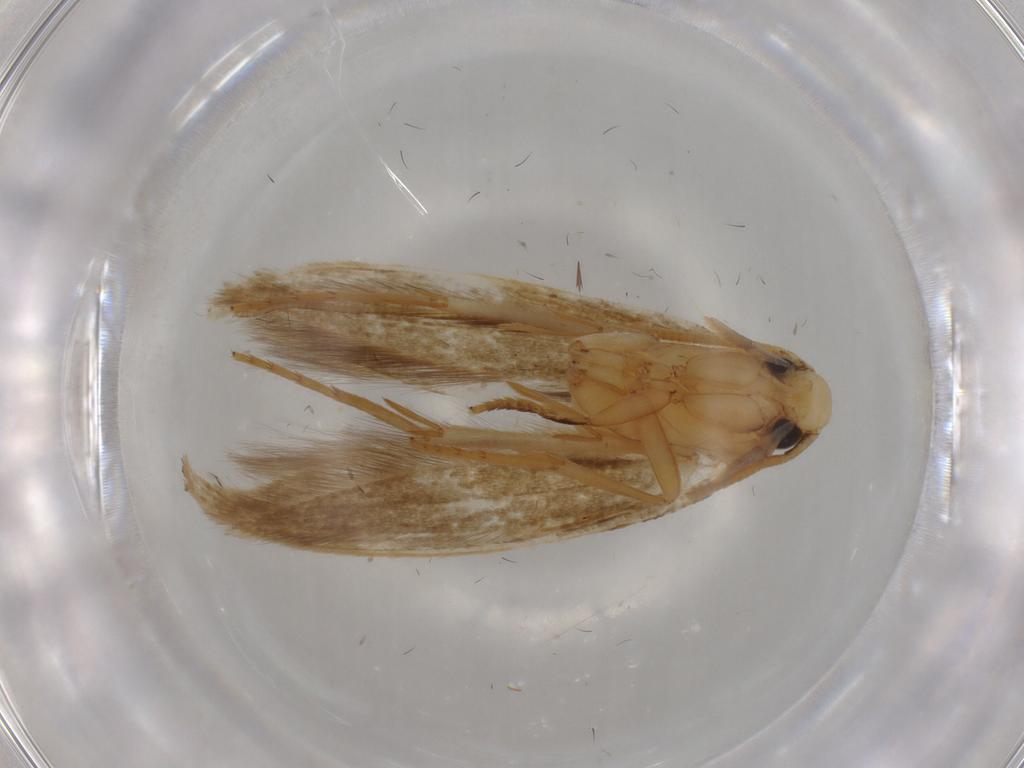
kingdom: Animalia
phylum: Arthropoda
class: Insecta
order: Lepidoptera
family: Tineidae
